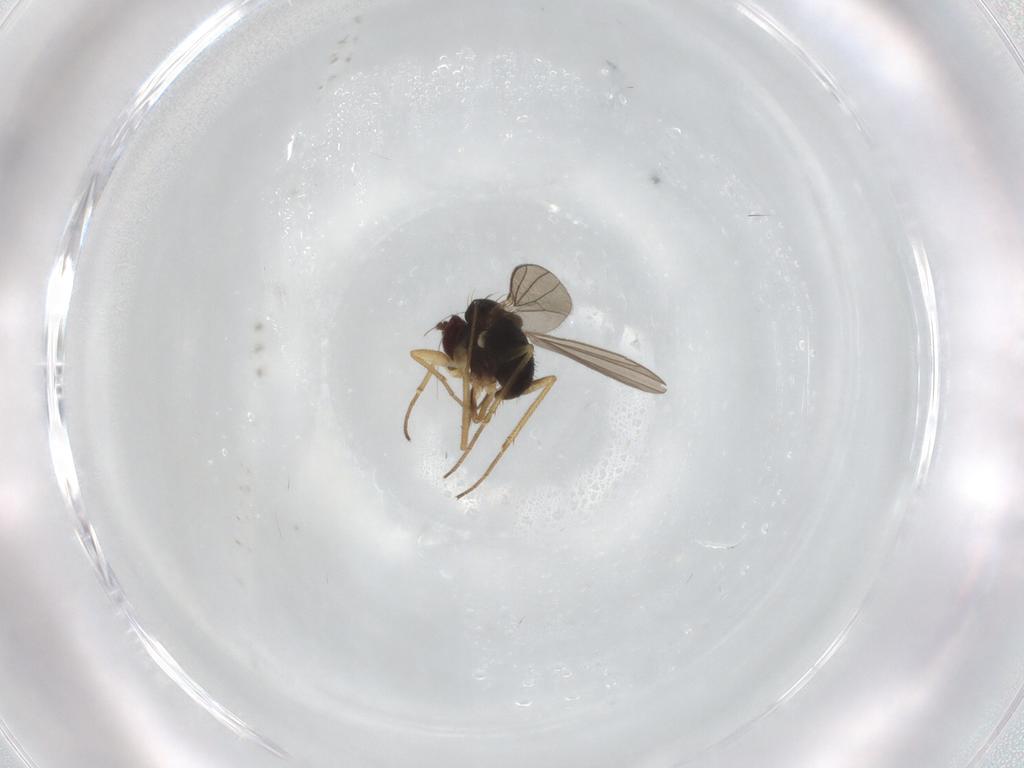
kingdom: Animalia
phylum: Arthropoda
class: Insecta
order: Diptera
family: Dolichopodidae
